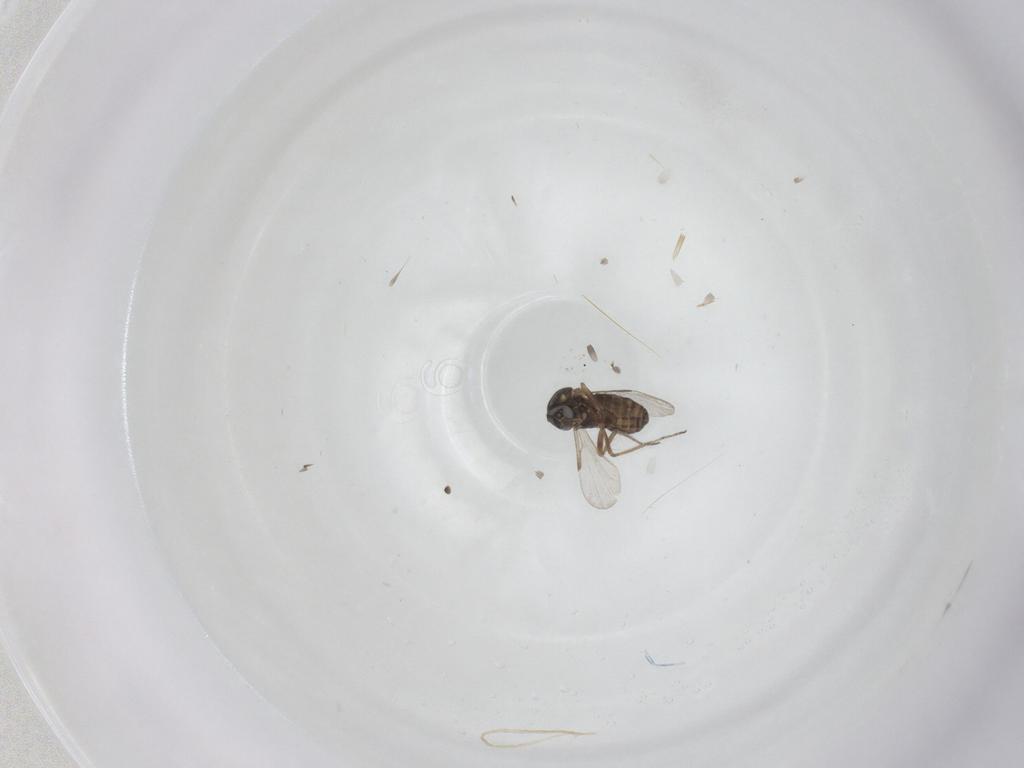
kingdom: Animalia
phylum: Arthropoda
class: Insecta
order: Diptera
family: Ceratopogonidae
